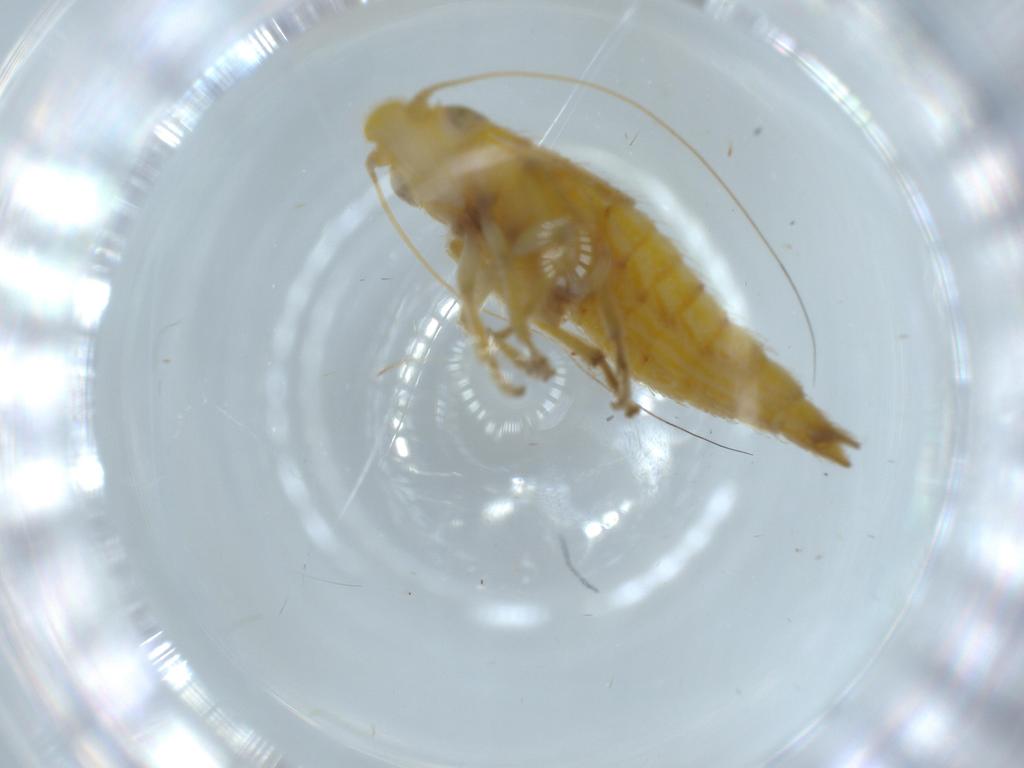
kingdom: Animalia
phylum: Arthropoda
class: Insecta
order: Hemiptera
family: Cicadellidae
